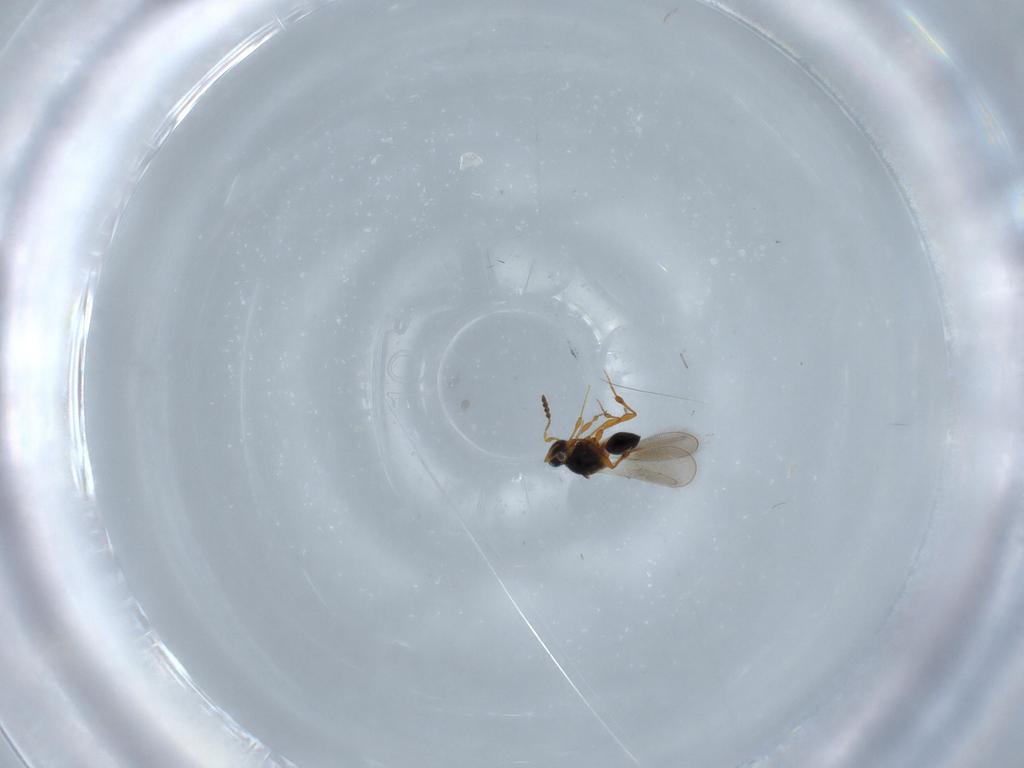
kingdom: Animalia
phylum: Arthropoda
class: Insecta
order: Hymenoptera
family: Platygastridae
